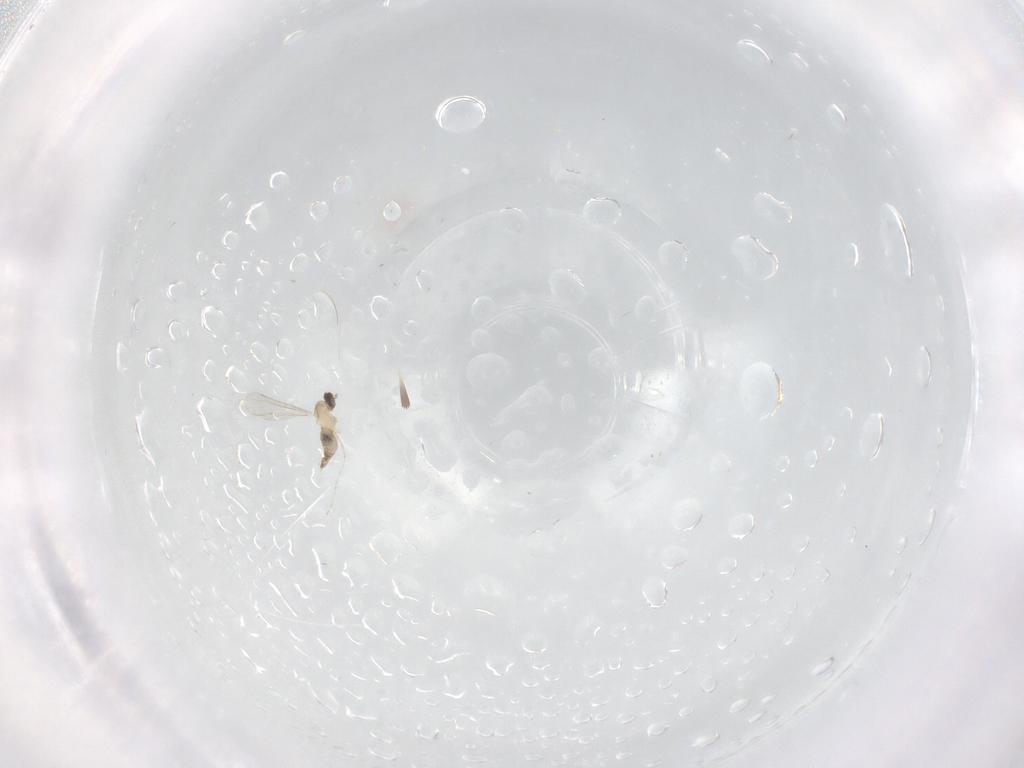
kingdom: Animalia
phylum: Arthropoda
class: Insecta
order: Diptera
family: Cecidomyiidae
